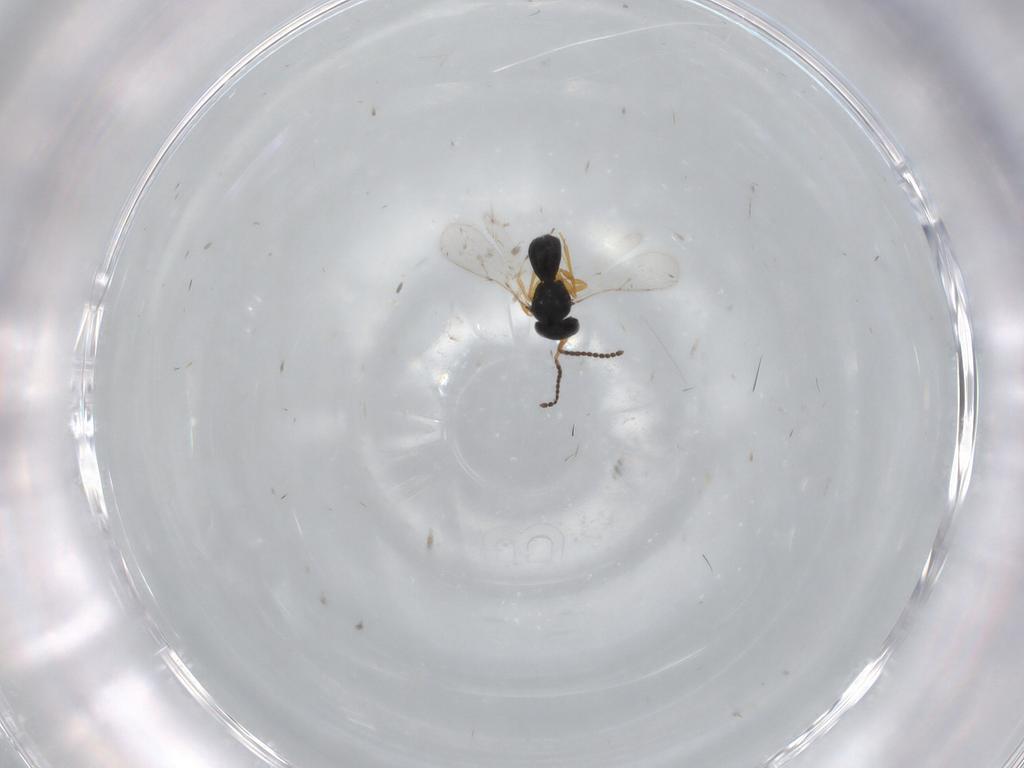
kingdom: Animalia
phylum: Arthropoda
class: Insecta
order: Hymenoptera
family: Scelionidae
